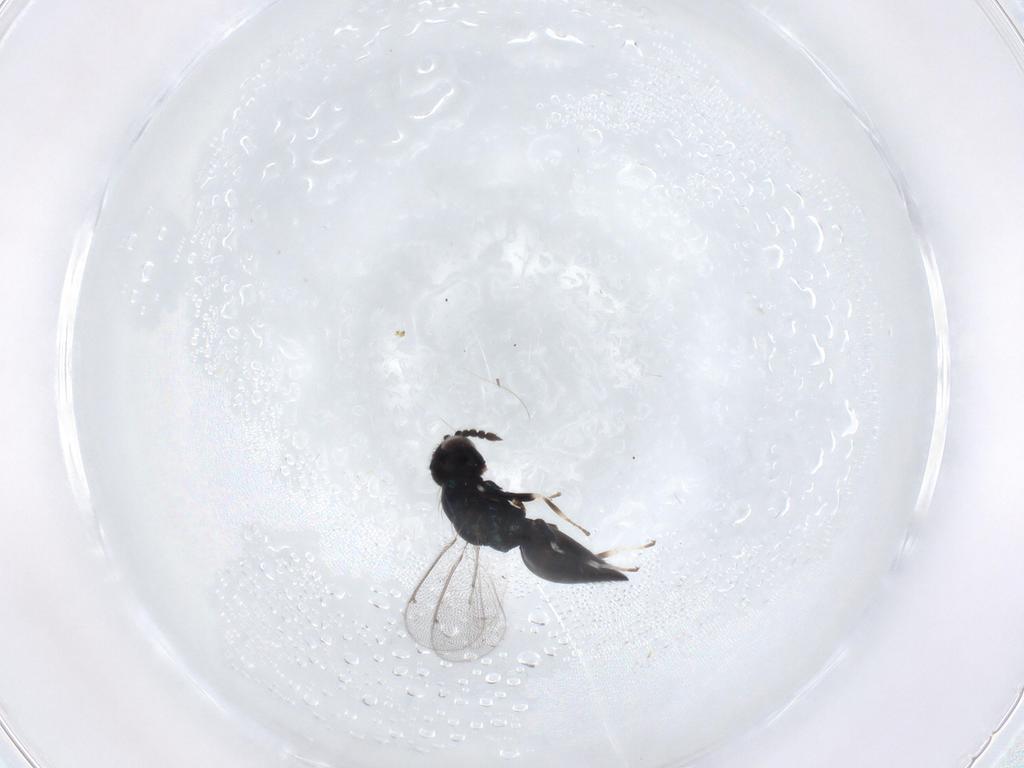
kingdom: Animalia
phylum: Arthropoda
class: Insecta
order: Hymenoptera
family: Eulophidae
